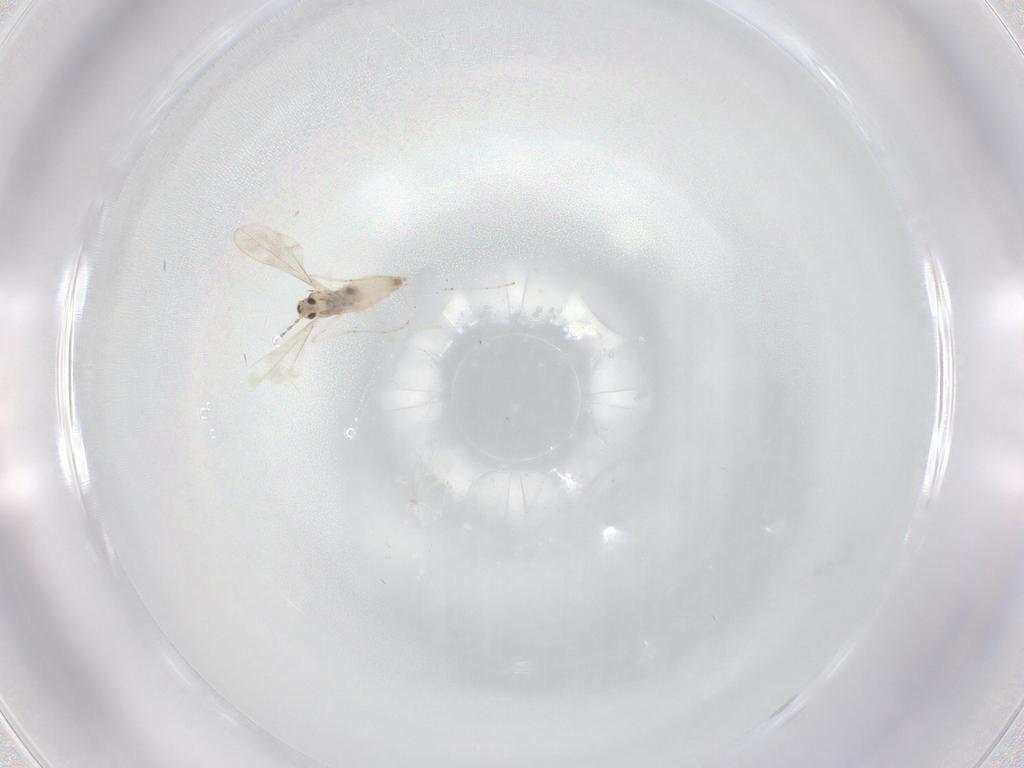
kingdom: Animalia
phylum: Arthropoda
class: Insecta
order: Diptera
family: Cecidomyiidae
